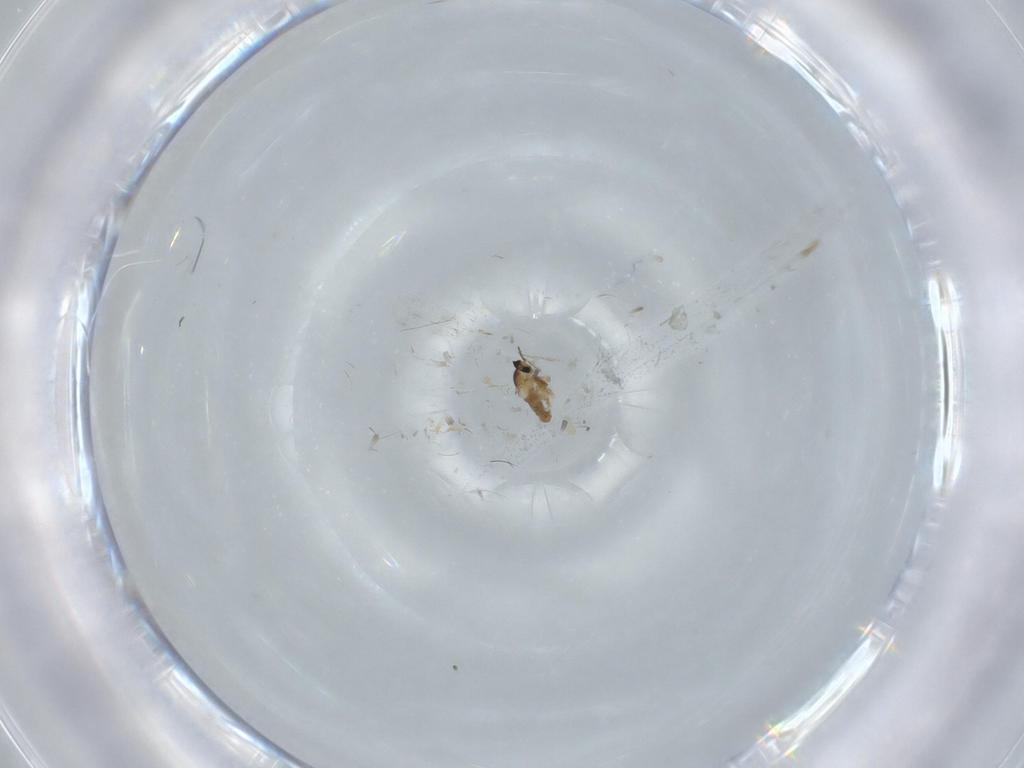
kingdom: Animalia
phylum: Arthropoda
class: Insecta
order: Diptera
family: Cecidomyiidae
